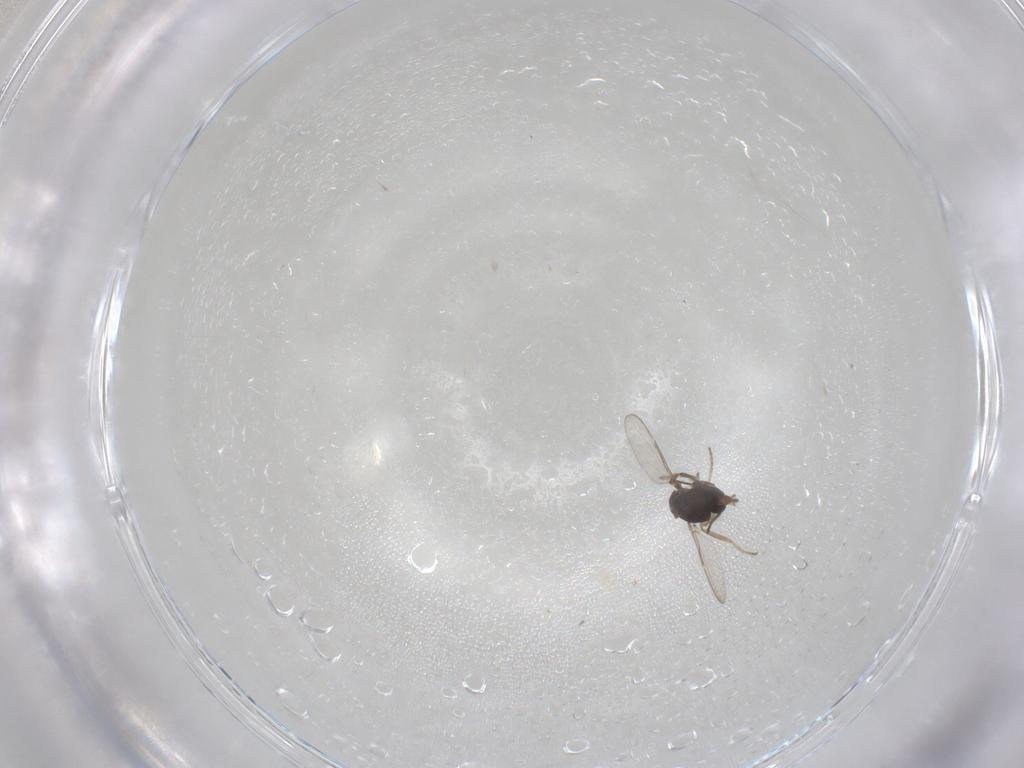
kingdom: Animalia
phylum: Arthropoda
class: Insecta
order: Diptera
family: Ceratopogonidae
